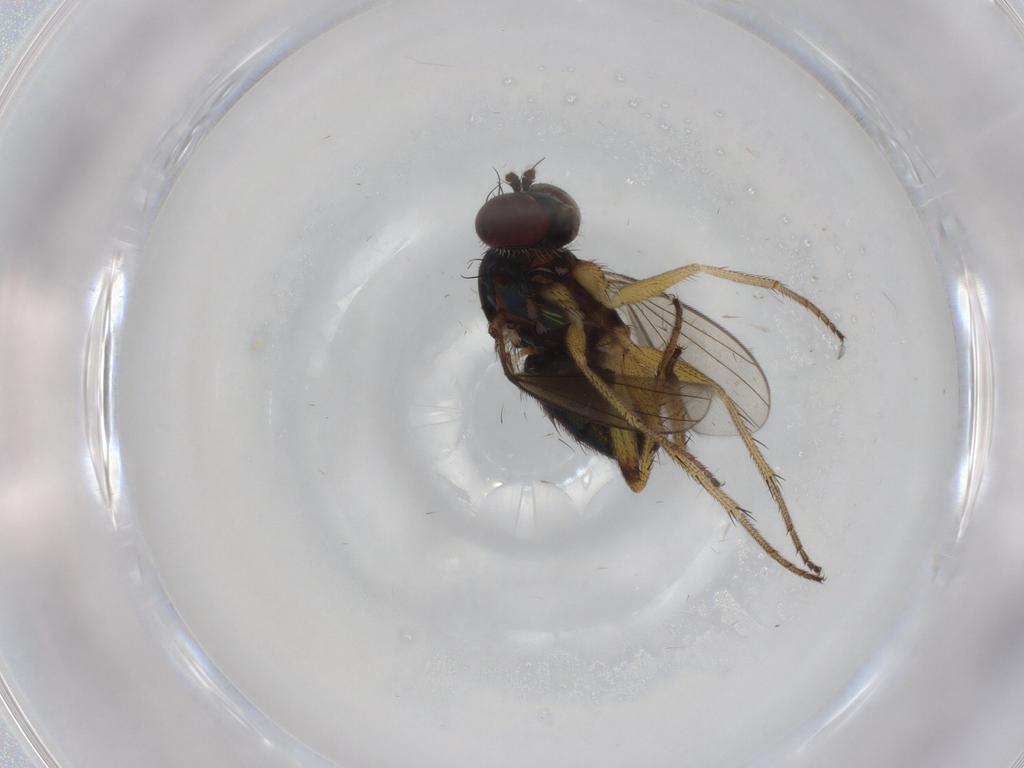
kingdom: Animalia
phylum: Arthropoda
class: Insecta
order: Diptera
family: Dolichopodidae
